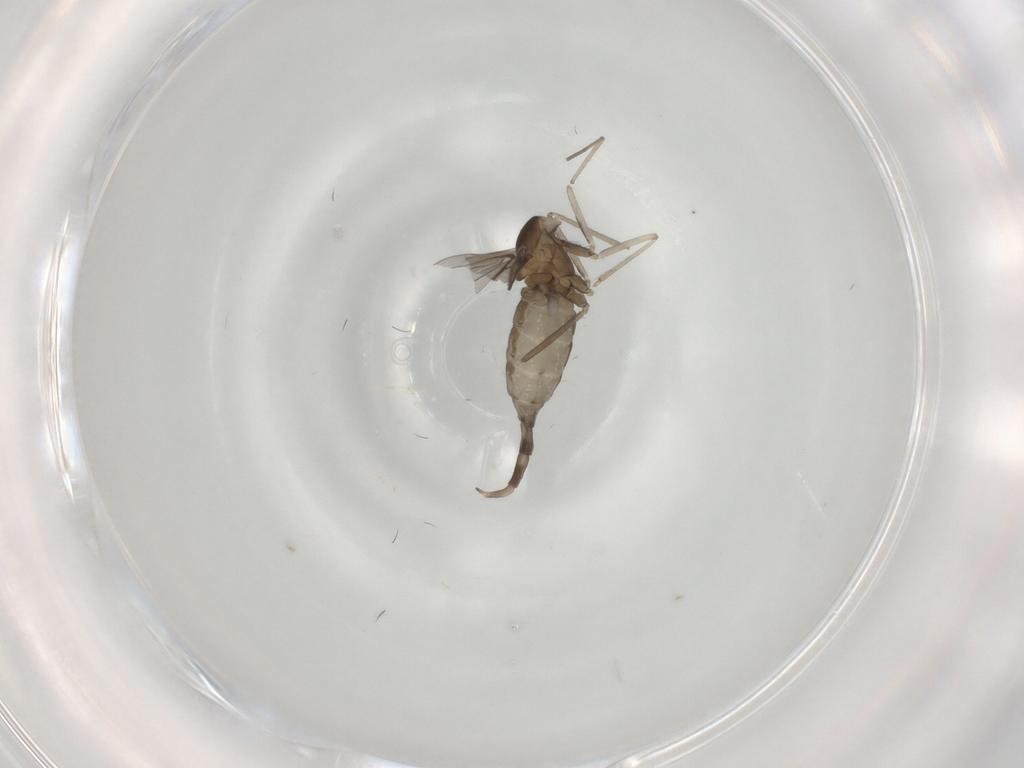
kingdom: Animalia
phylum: Arthropoda
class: Insecta
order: Diptera
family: Cecidomyiidae
